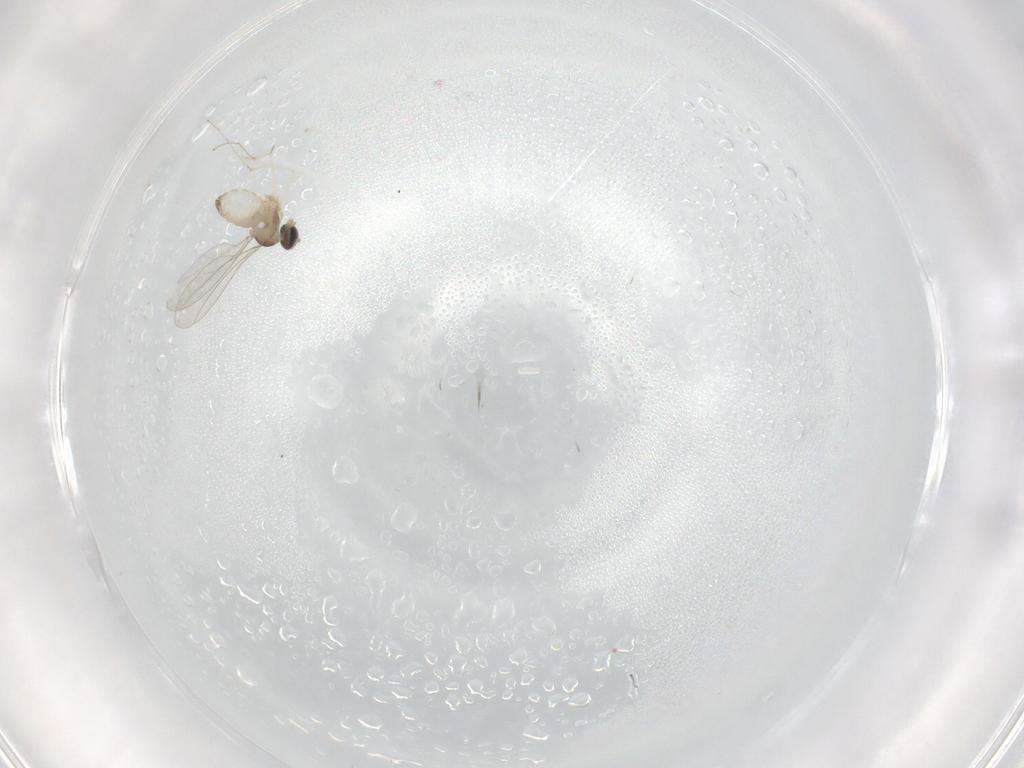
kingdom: Animalia
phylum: Arthropoda
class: Insecta
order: Diptera
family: Cecidomyiidae
